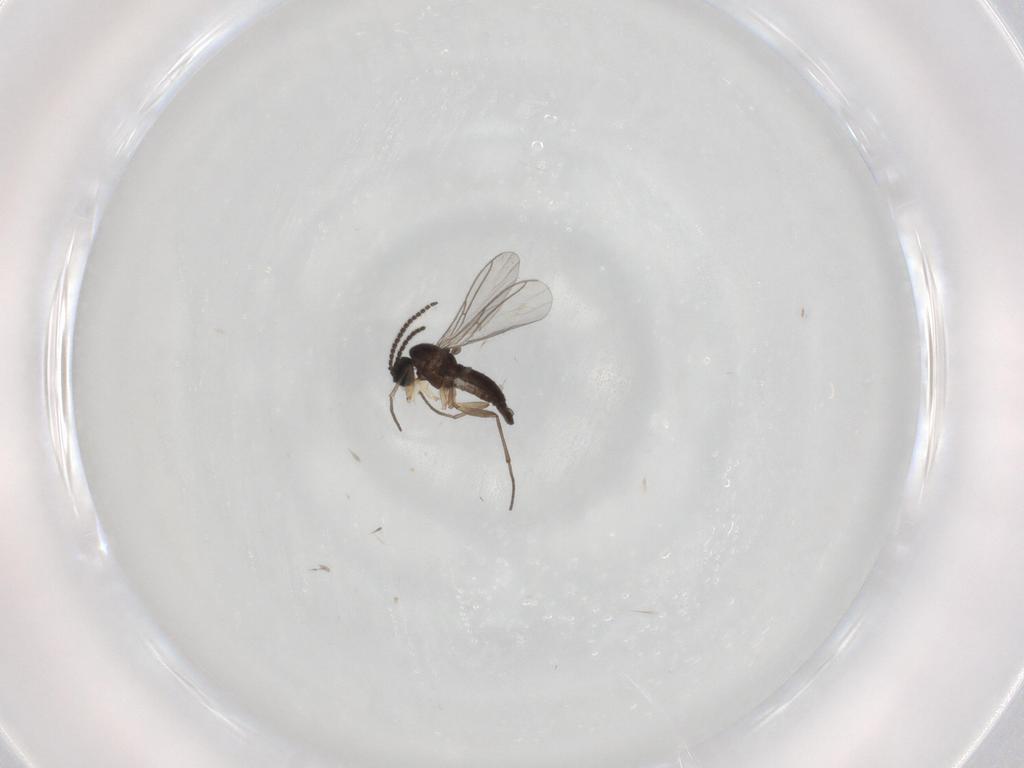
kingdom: Animalia
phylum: Arthropoda
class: Insecta
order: Diptera
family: Sciaridae
